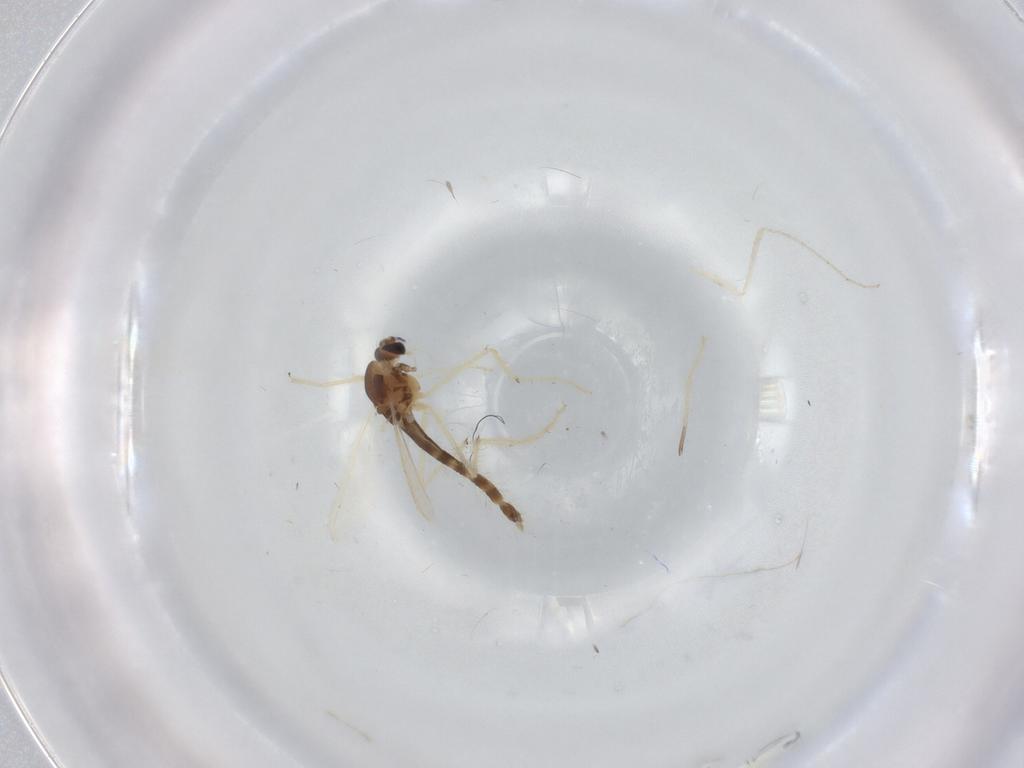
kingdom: Animalia
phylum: Arthropoda
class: Insecta
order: Diptera
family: Chironomidae
